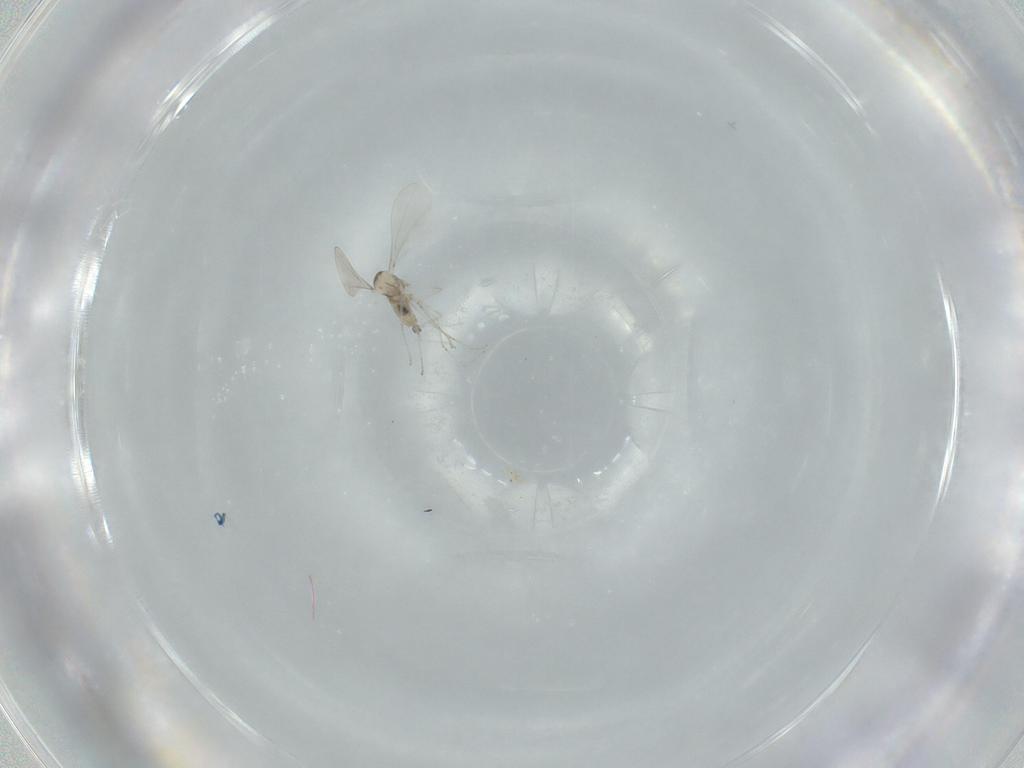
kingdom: Animalia
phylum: Arthropoda
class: Insecta
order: Diptera
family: Cecidomyiidae
